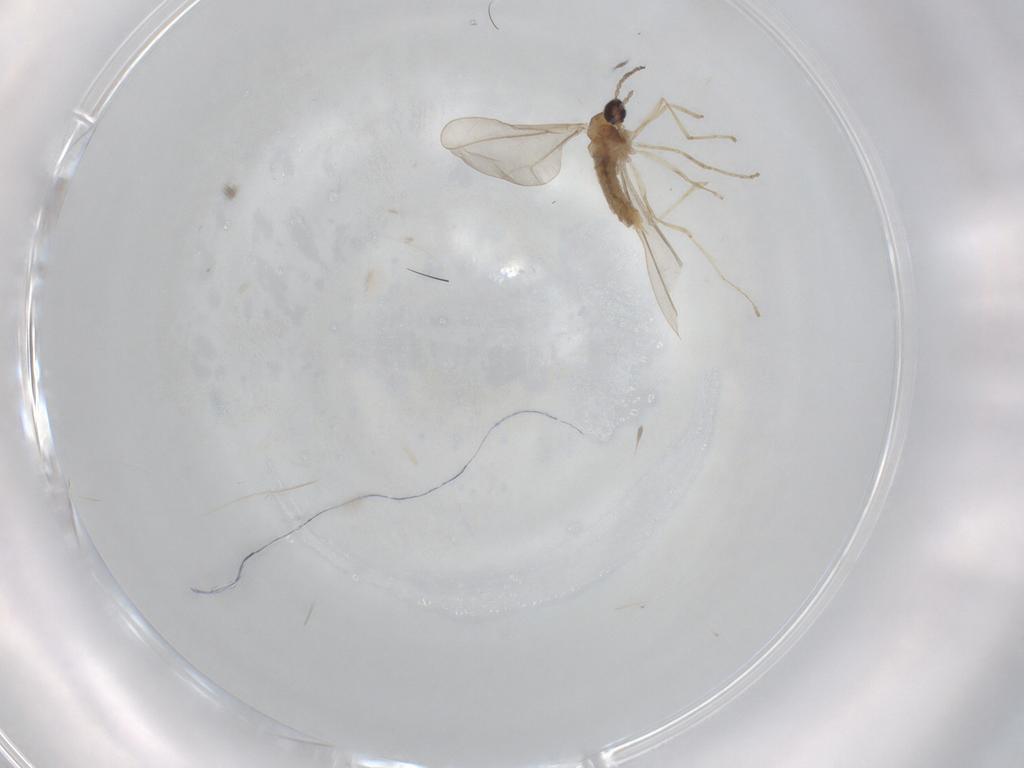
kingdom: Animalia
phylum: Arthropoda
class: Insecta
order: Diptera
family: Cecidomyiidae
